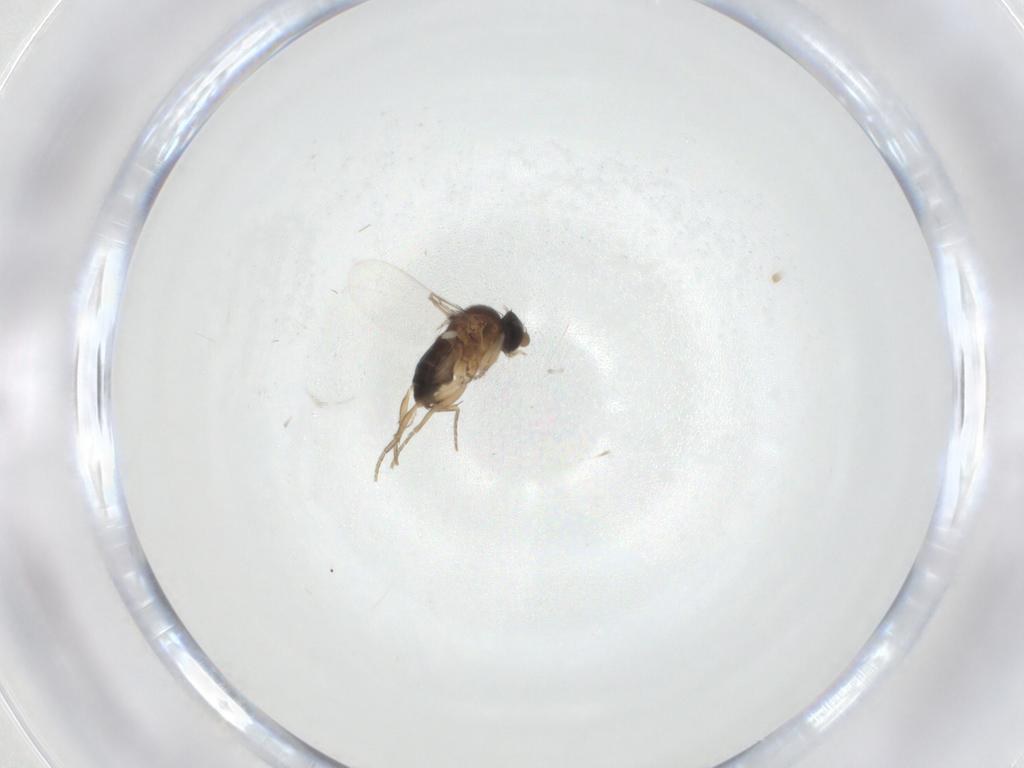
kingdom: Animalia
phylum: Arthropoda
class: Insecta
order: Diptera
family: Phoridae
